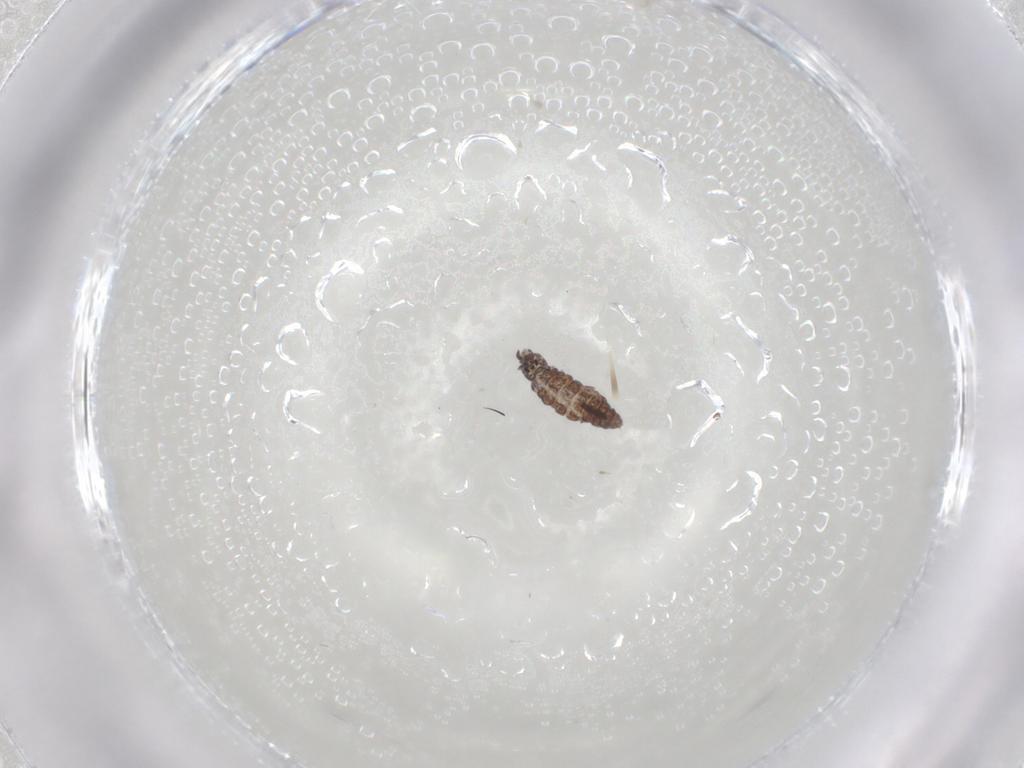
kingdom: Animalia
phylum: Arthropoda
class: Collembola
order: Poduromorpha
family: Hypogastruridae
